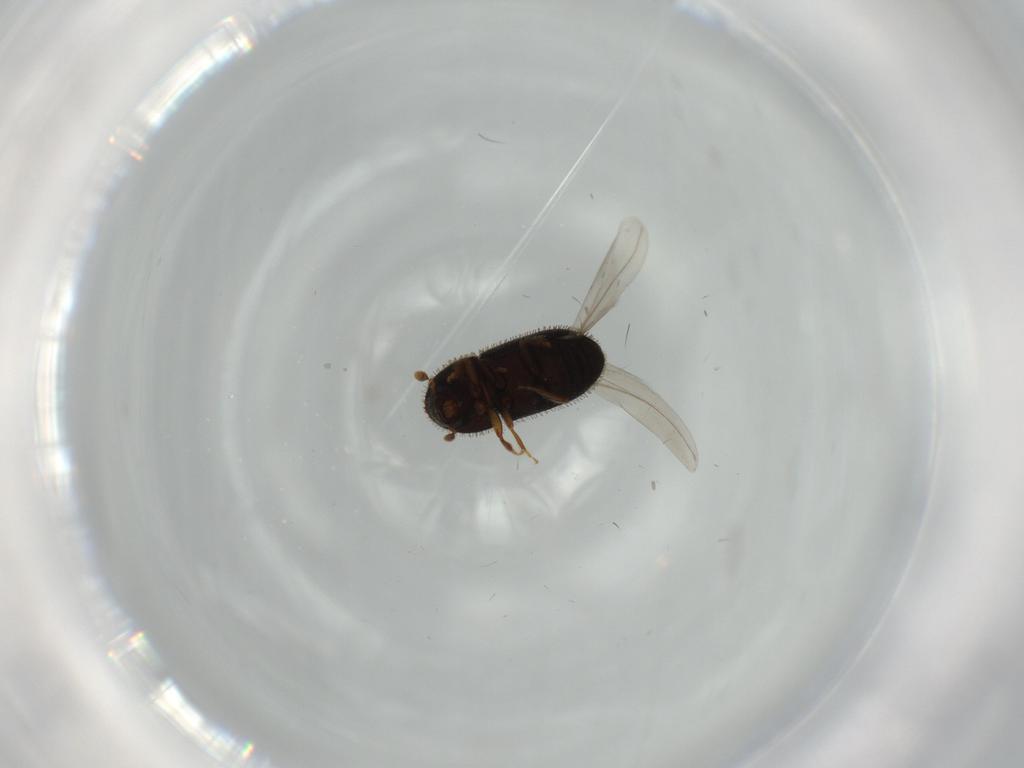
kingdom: Animalia
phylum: Arthropoda
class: Insecta
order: Coleoptera
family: Curculionidae
